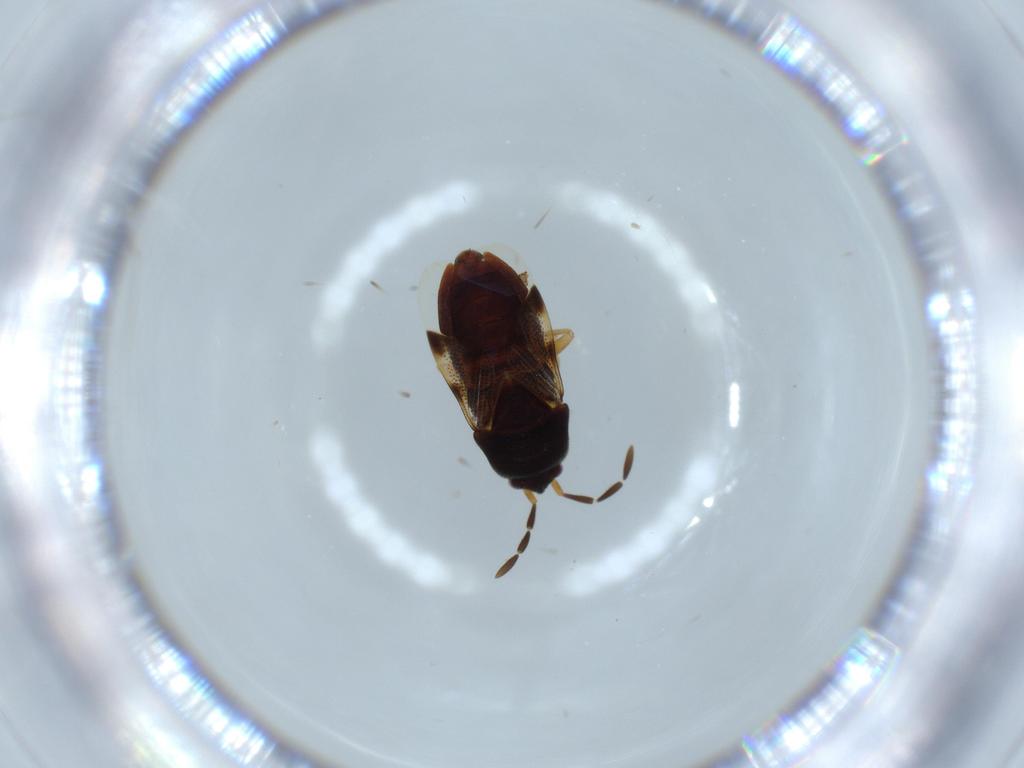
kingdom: Animalia
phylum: Arthropoda
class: Insecta
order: Hemiptera
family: Rhyparochromidae
